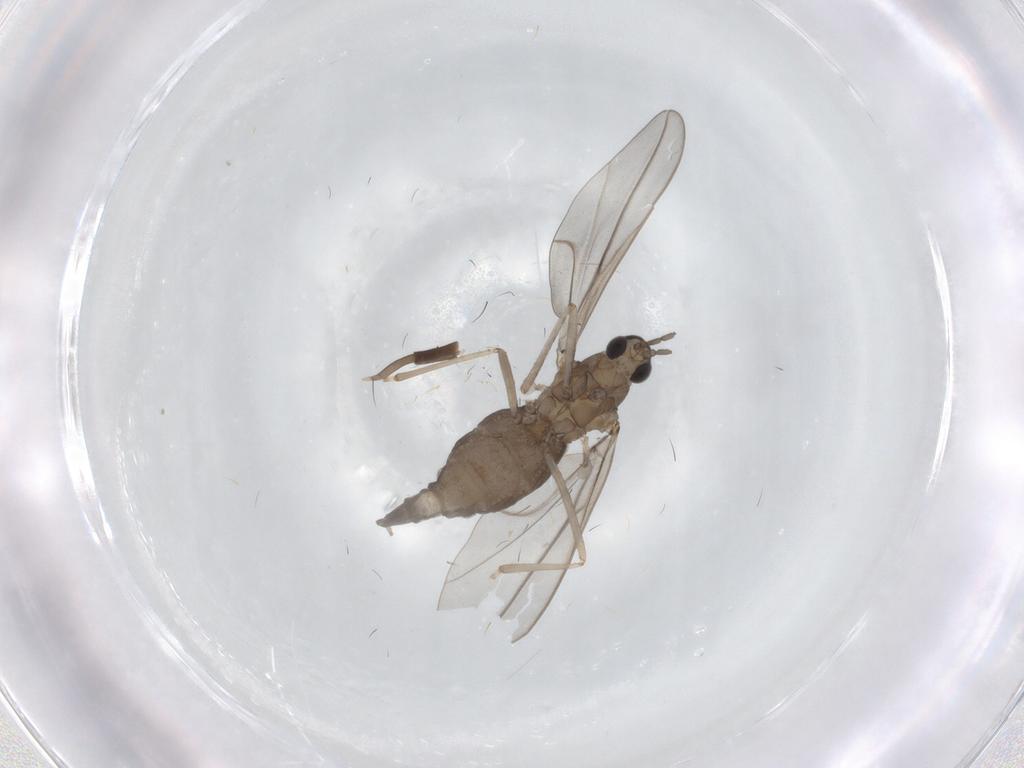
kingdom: Animalia
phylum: Arthropoda
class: Insecta
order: Diptera
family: Cecidomyiidae
